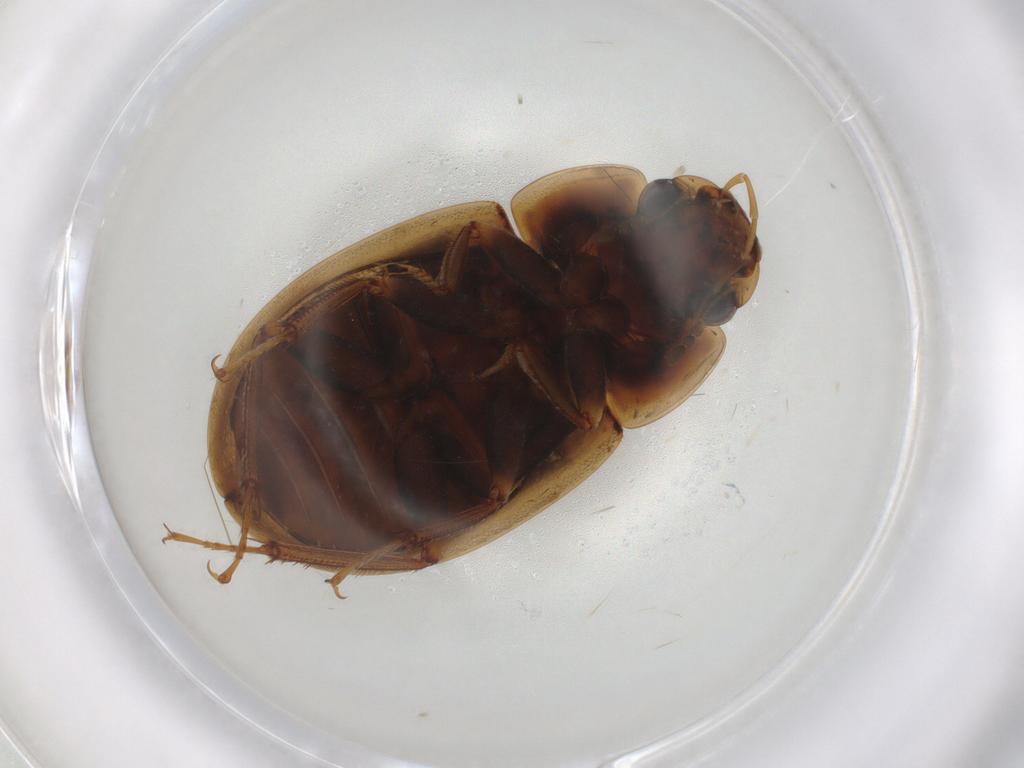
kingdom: Animalia
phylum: Arthropoda
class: Insecta
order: Coleoptera
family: Hydrophilidae
